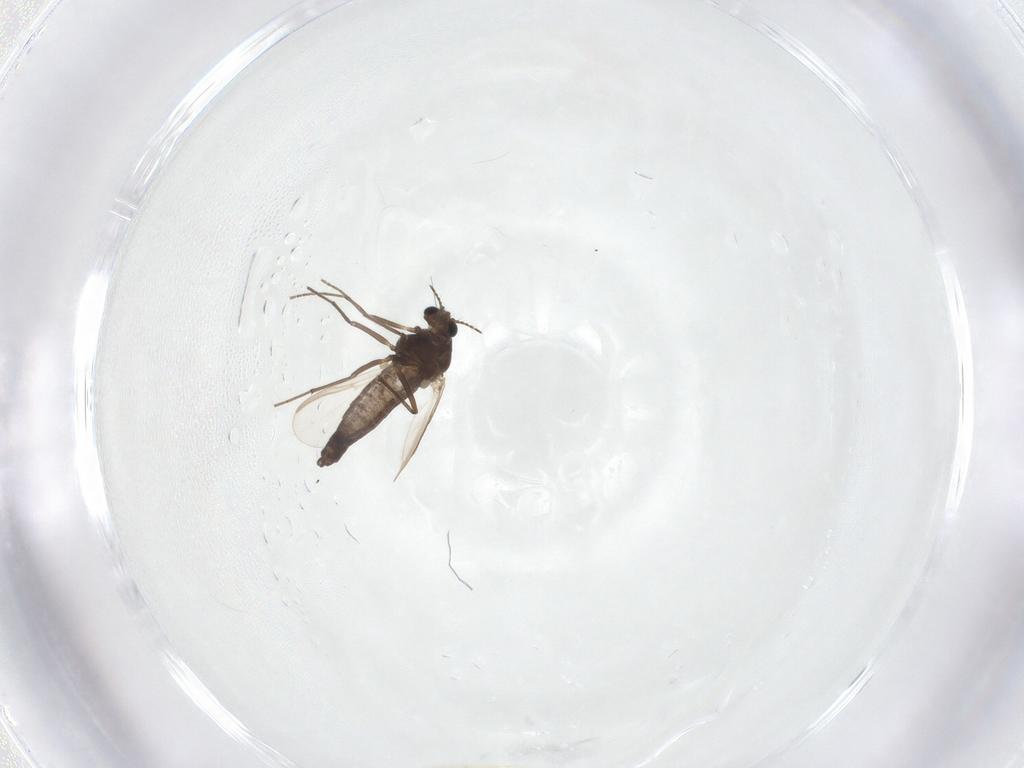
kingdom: Animalia
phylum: Arthropoda
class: Insecta
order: Diptera
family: Chironomidae
